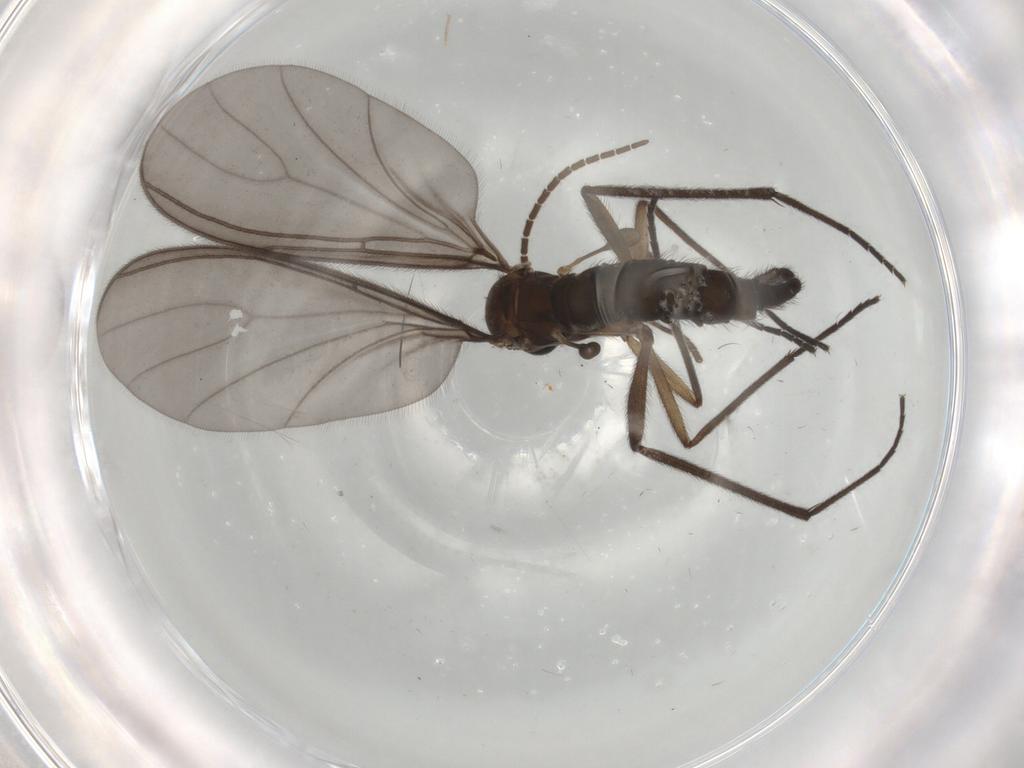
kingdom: Animalia
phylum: Arthropoda
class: Insecta
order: Diptera
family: Sciaridae
